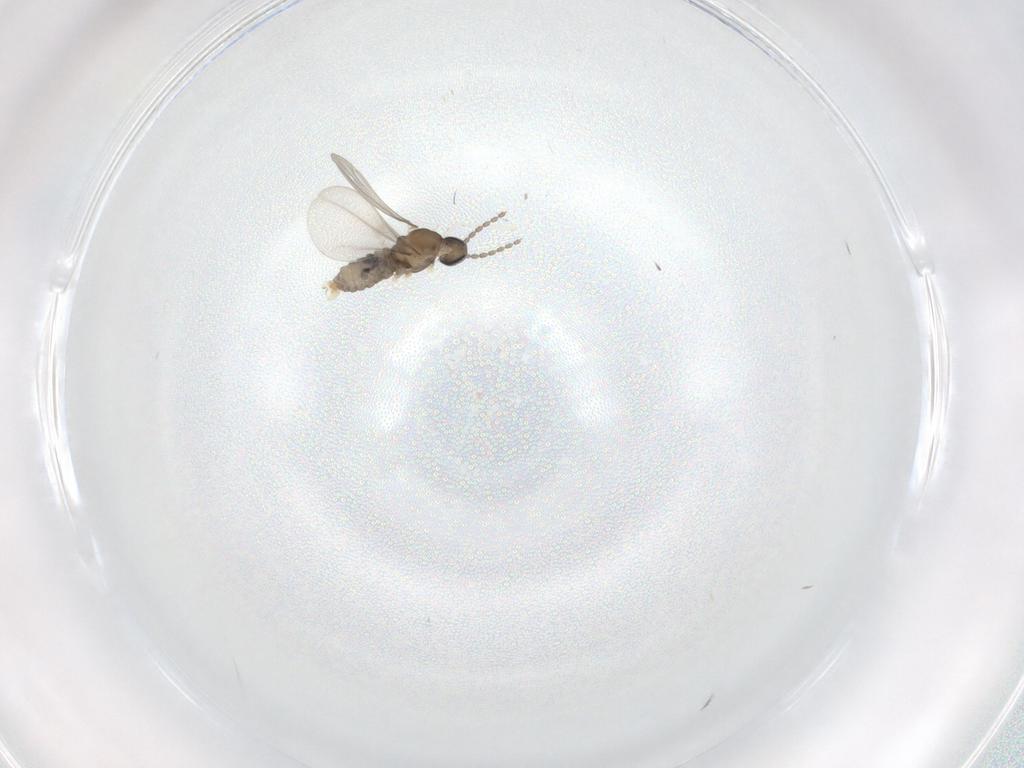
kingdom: Animalia
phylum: Arthropoda
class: Insecta
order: Diptera
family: Cecidomyiidae
